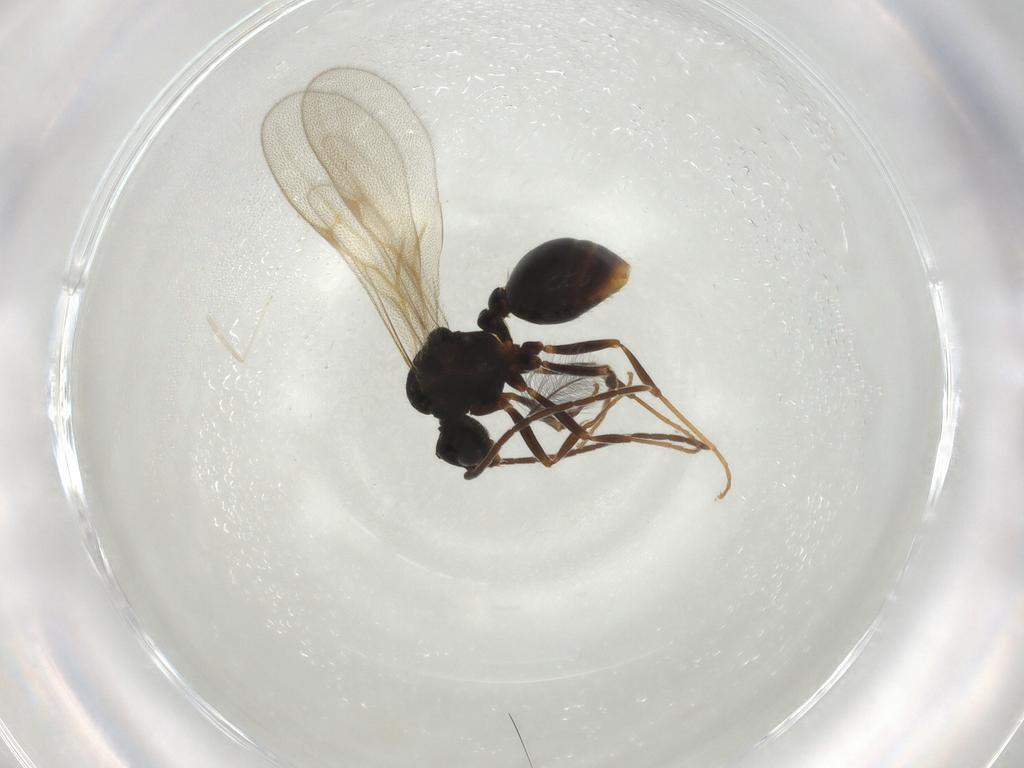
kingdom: Animalia
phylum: Arthropoda
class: Insecta
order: Hymenoptera
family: Formicidae
